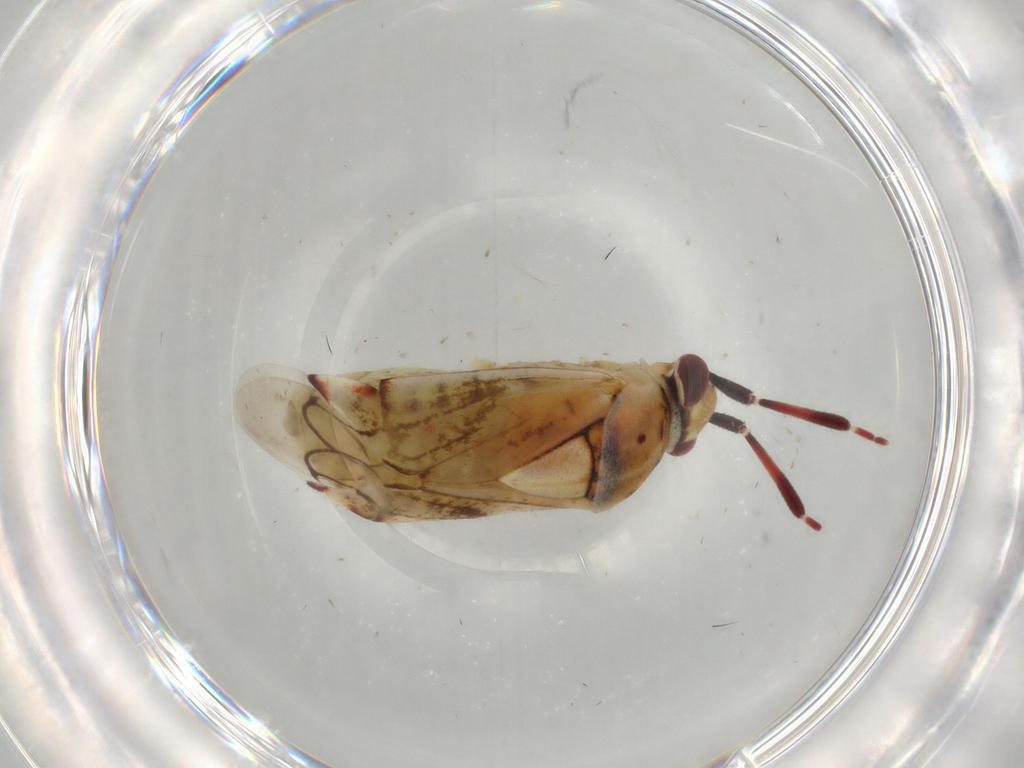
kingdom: Animalia
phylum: Arthropoda
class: Insecta
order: Hemiptera
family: Miridae
